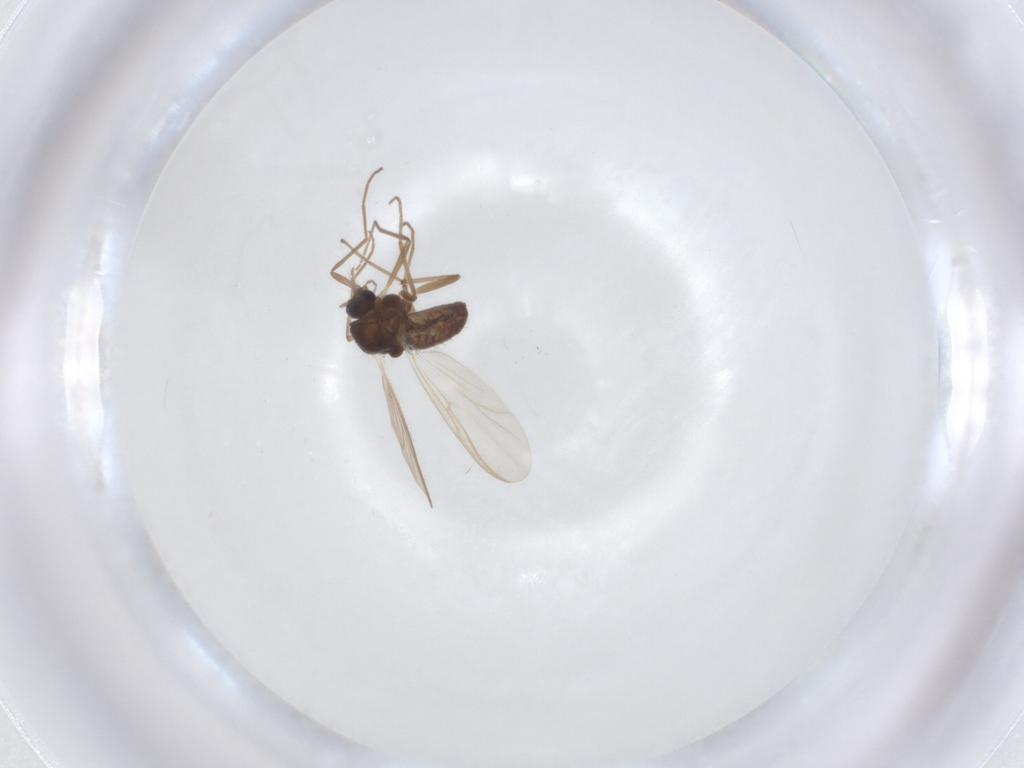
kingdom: Animalia
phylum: Arthropoda
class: Insecta
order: Diptera
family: Chironomidae
